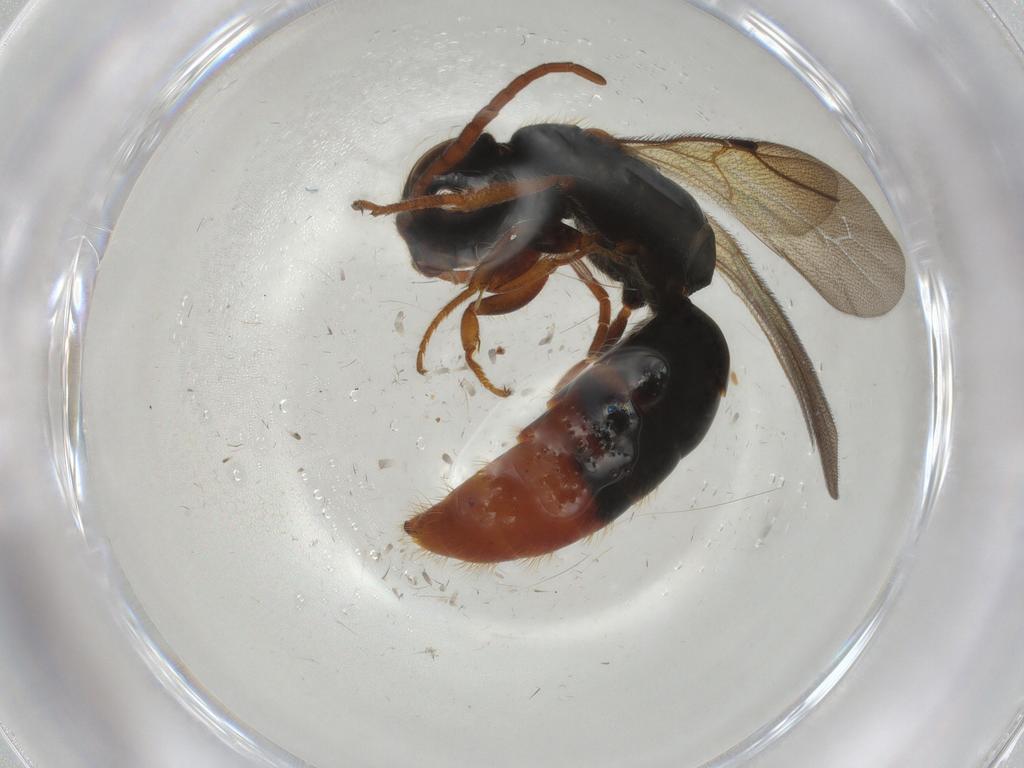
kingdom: Animalia
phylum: Arthropoda
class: Insecta
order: Hymenoptera
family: Bethylidae
